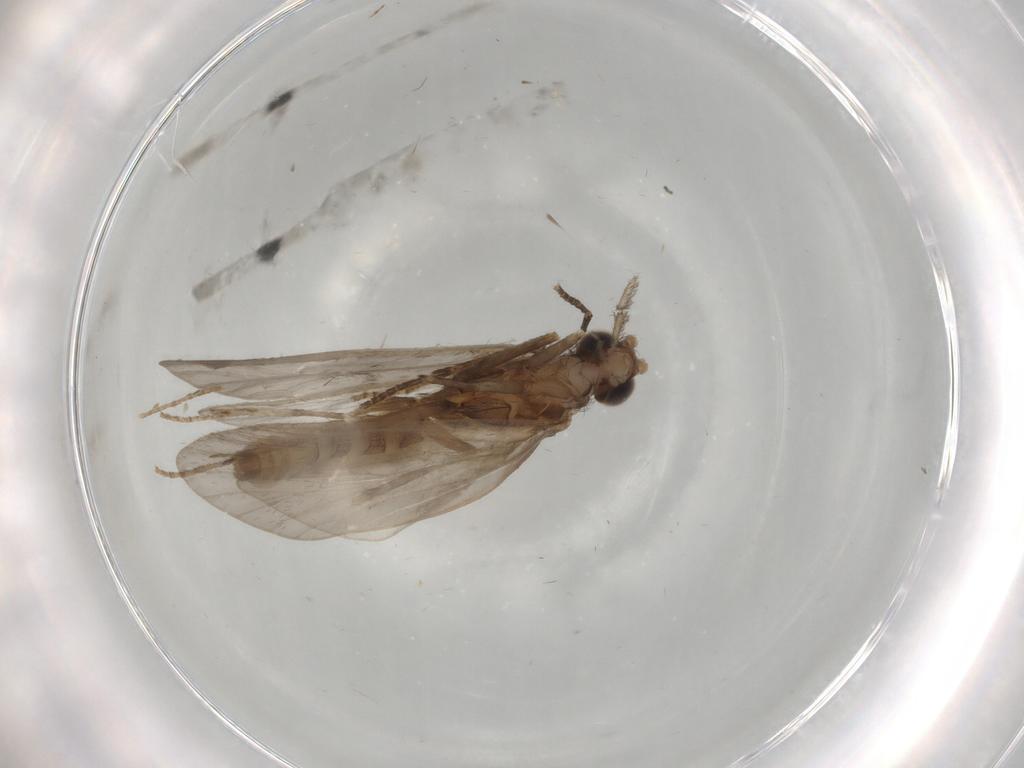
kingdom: Animalia
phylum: Arthropoda
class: Insecta
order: Trichoptera
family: Helicopsychidae
